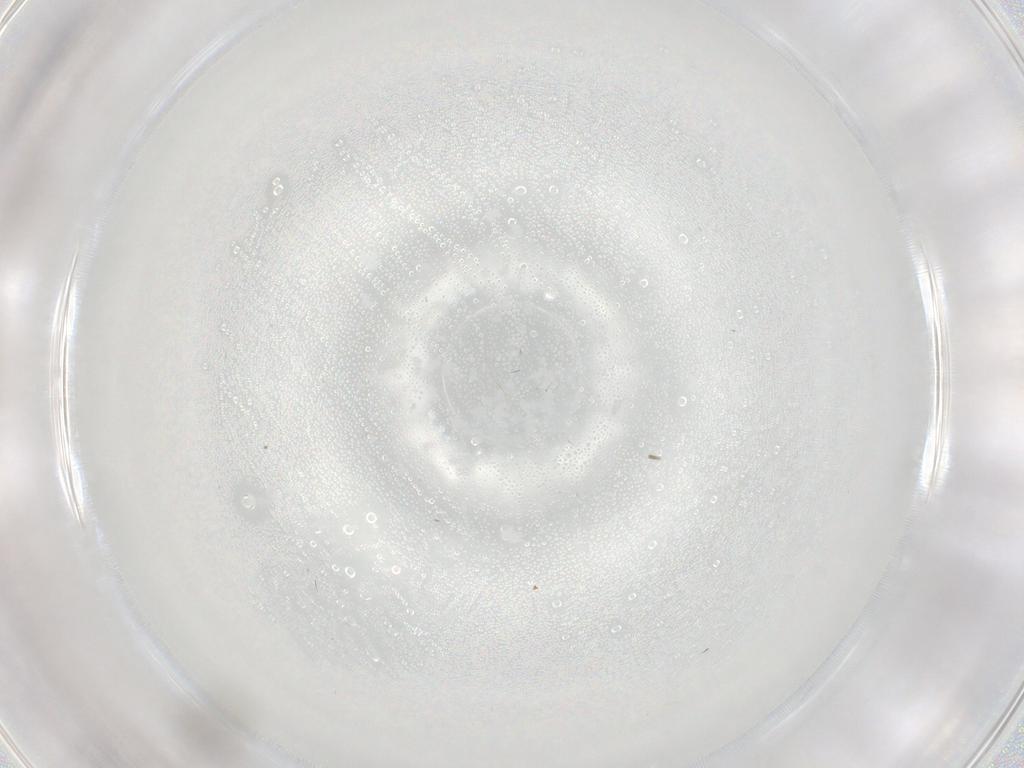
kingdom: Animalia
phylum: Arthropoda
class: Insecta
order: Diptera
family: Cecidomyiidae
